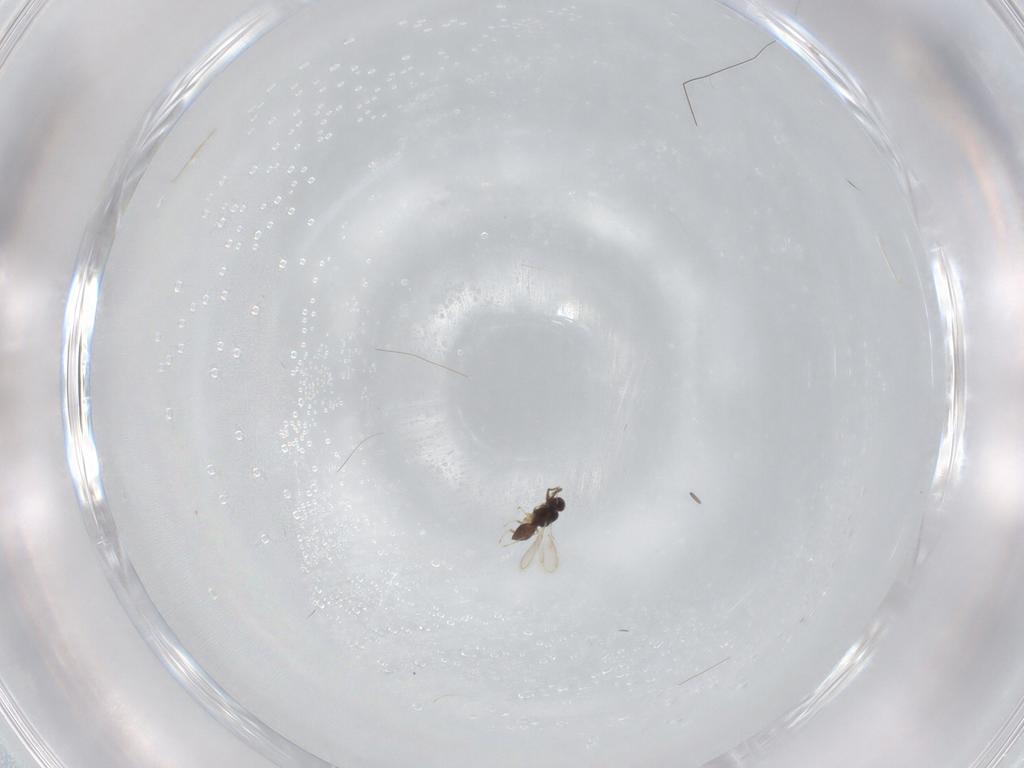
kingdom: Animalia
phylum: Arthropoda
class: Insecta
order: Hymenoptera
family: Scelionidae
